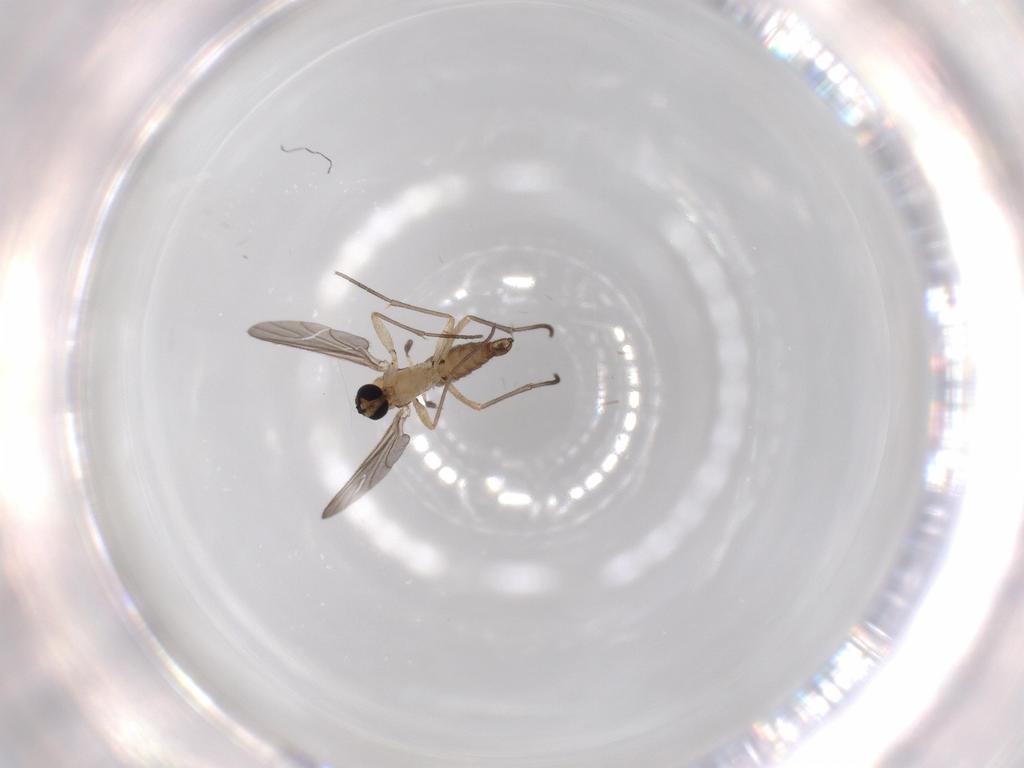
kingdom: Animalia
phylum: Arthropoda
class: Insecta
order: Diptera
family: Sciaridae
